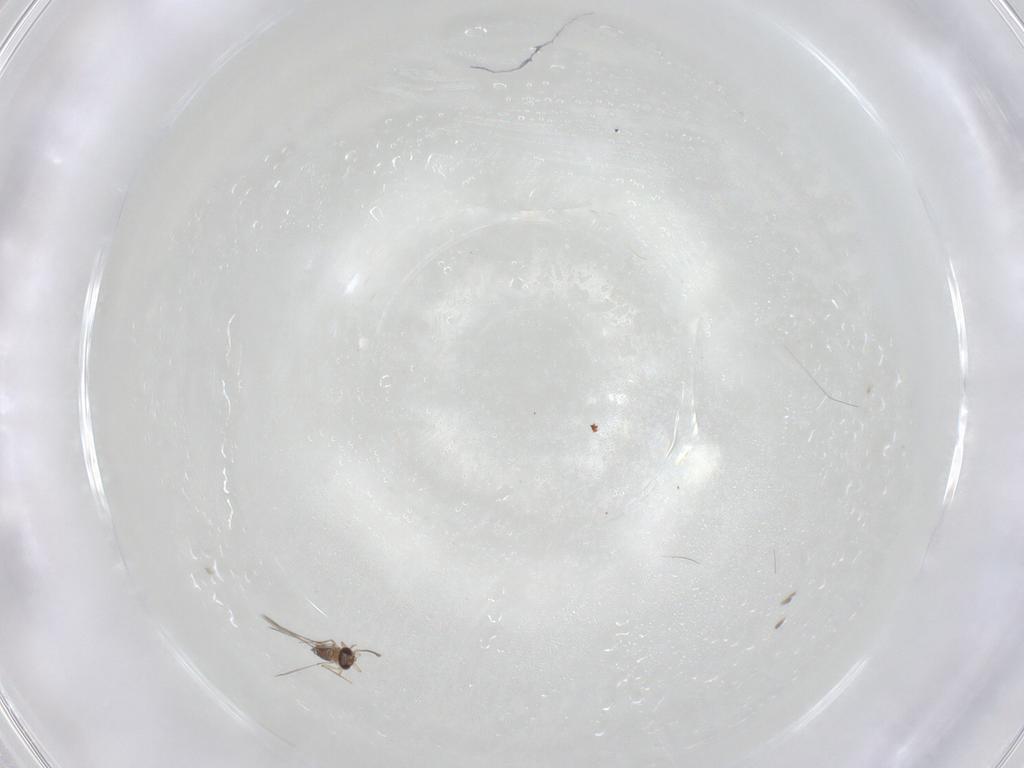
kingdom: Animalia
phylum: Arthropoda
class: Insecta
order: Hymenoptera
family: Mymaridae
